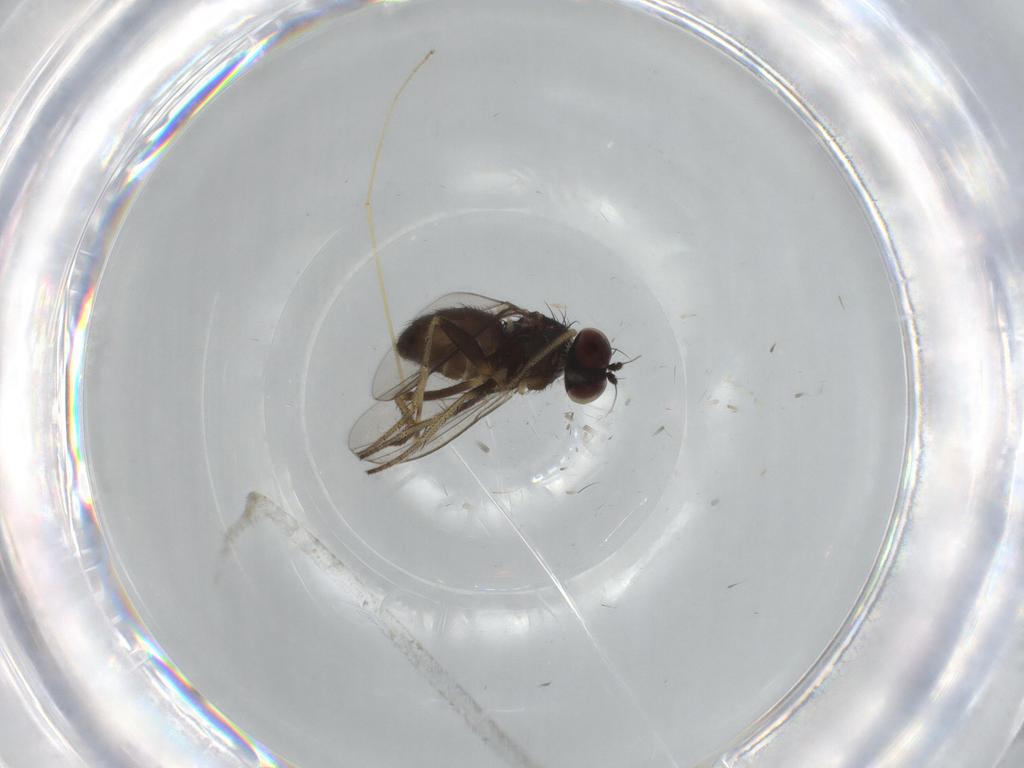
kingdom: Animalia
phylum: Arthropoda
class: Insecta
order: Diptera
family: Limoniidae
